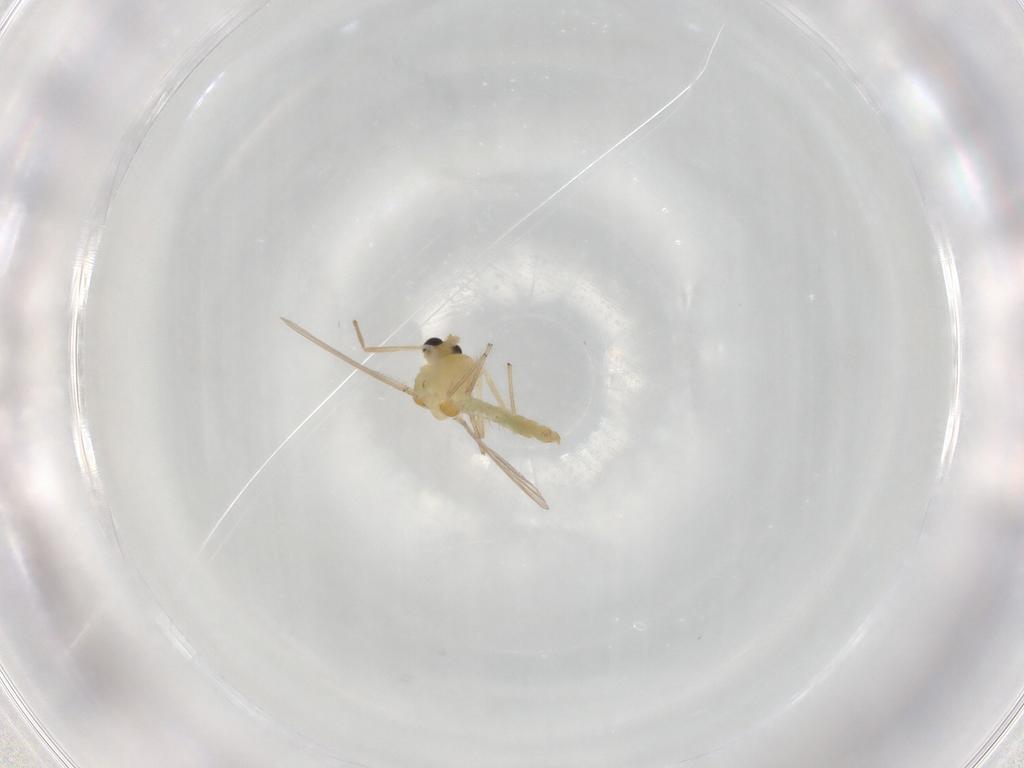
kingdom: Animalia
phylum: Arthropoda
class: Insecta
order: Diptera
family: Chironomidae
